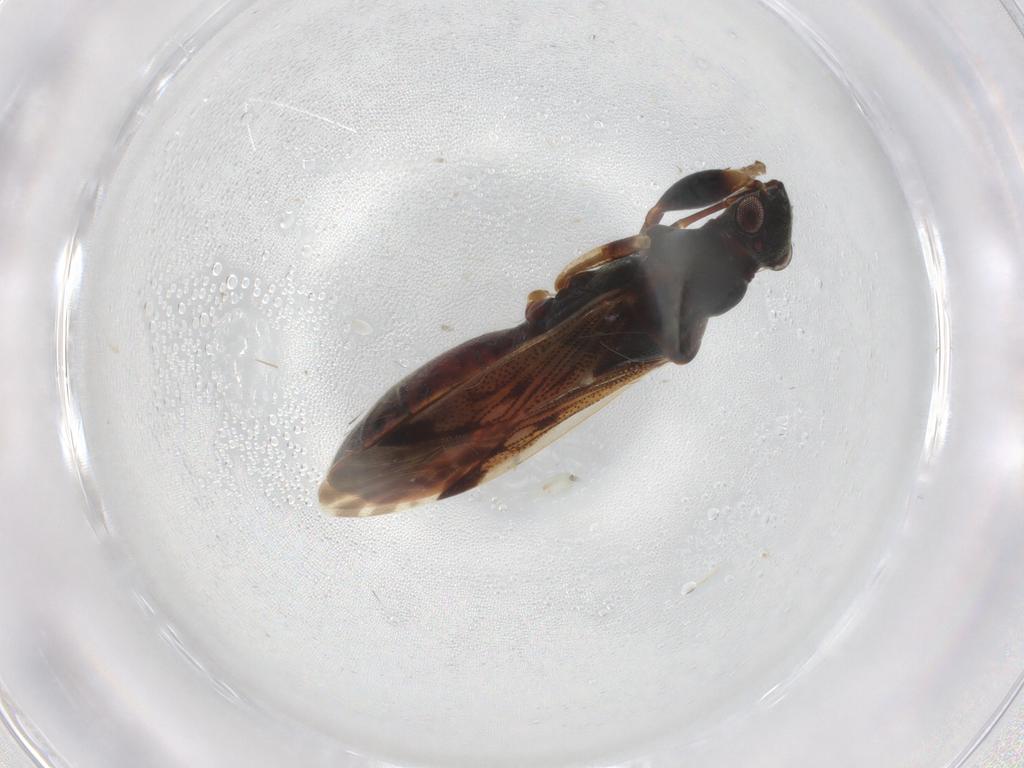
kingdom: Animalia
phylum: Arthropoda
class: Insecta
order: Hemiptera
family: Rhyparochromidae
